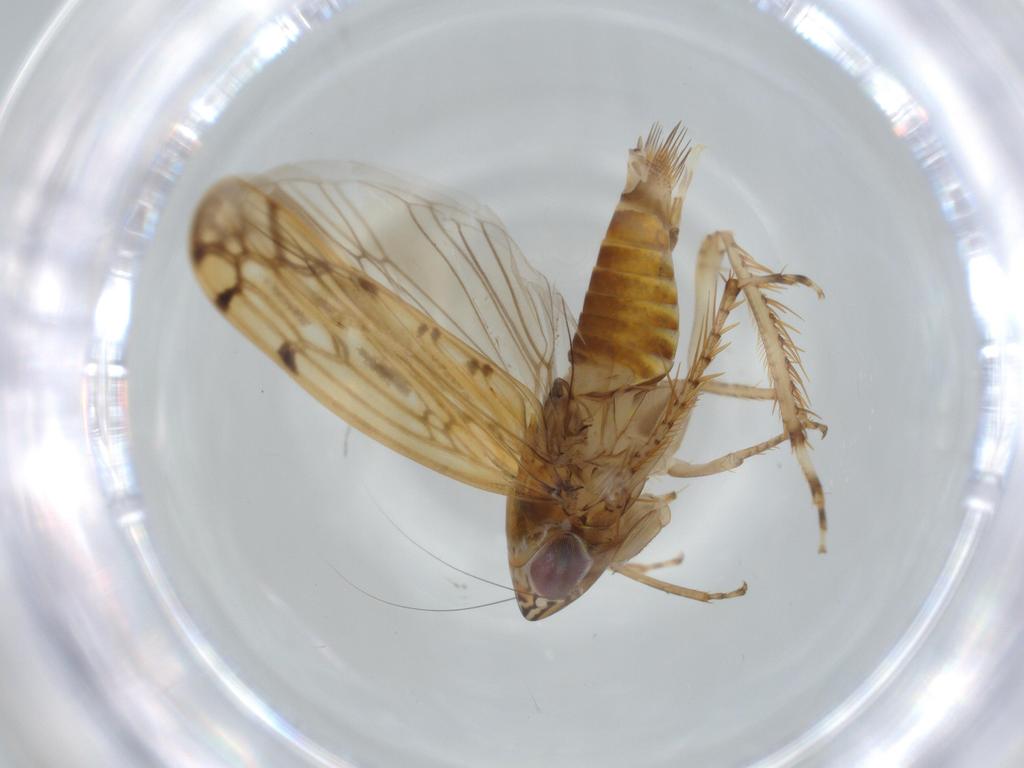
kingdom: Animalia
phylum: Arthropoda
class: Insecta
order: Hemiptera
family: Cicadellidae
